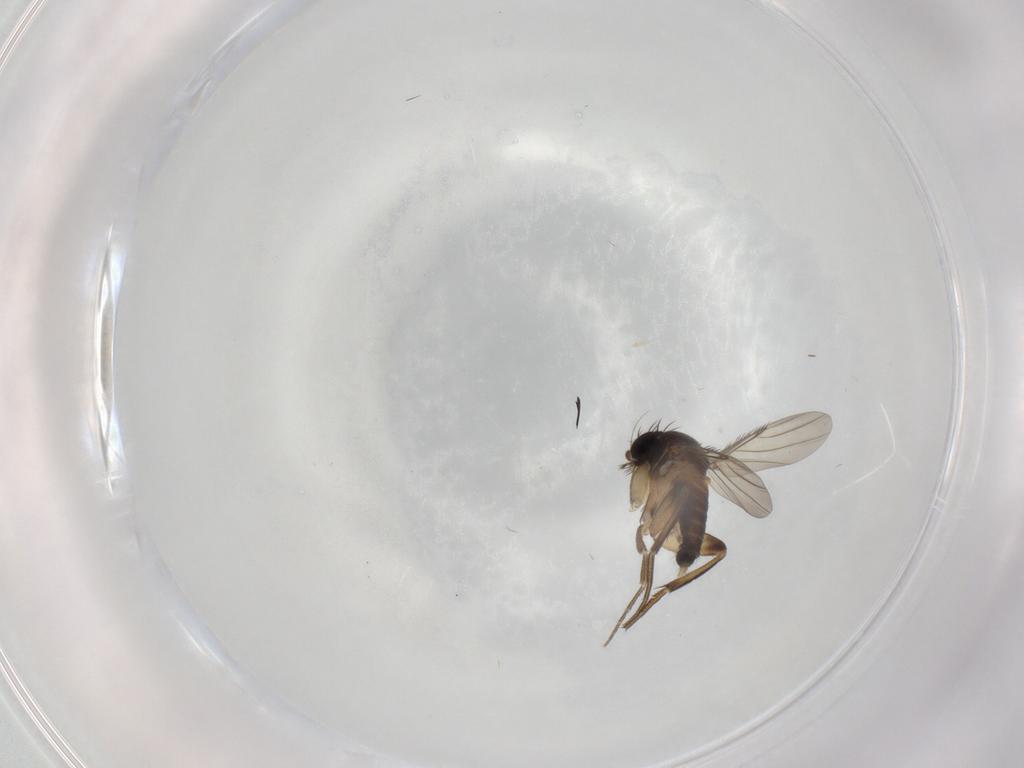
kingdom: Animalia
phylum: Arthropoda
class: Insecta
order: Diptera
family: Phoridae
